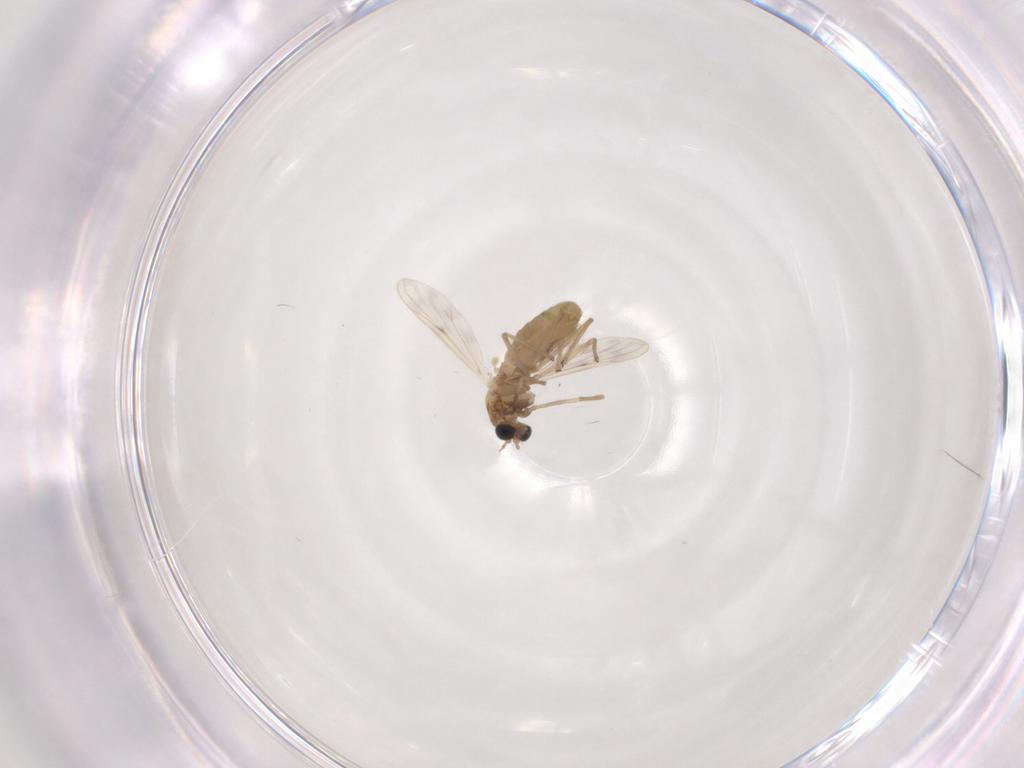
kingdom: Animalia
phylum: Arthropoda
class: Insecta
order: Diptera
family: Chironomidae
